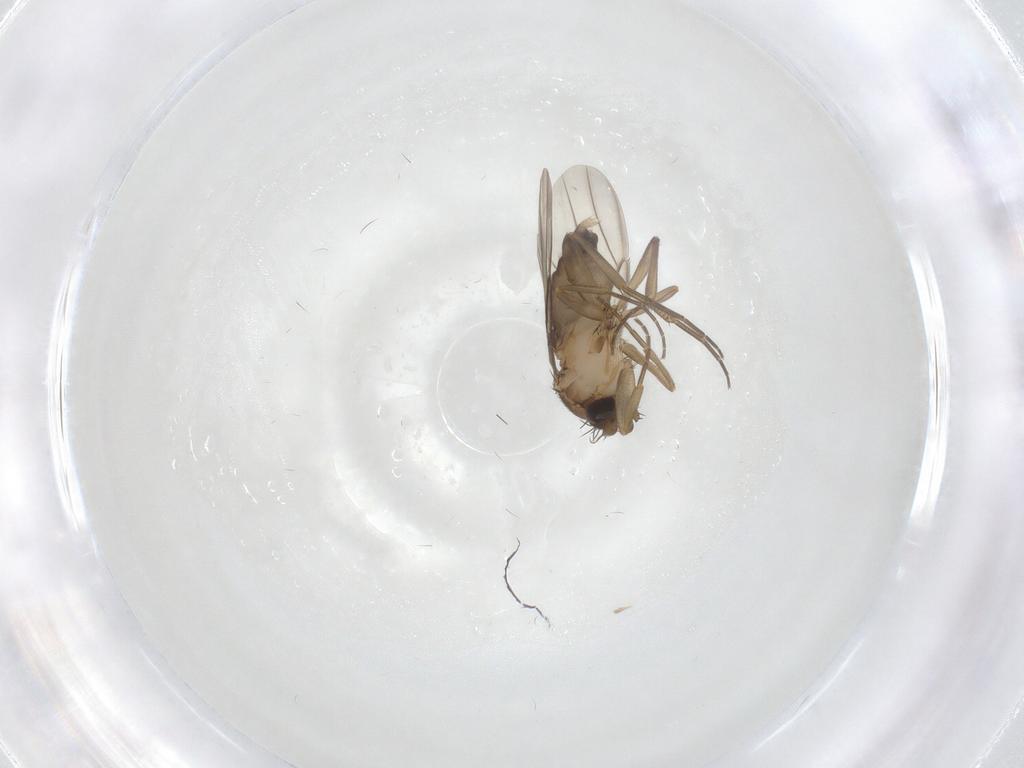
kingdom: Animalia
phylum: Arthropoda
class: Insecta
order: Diptera
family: Phoridae
